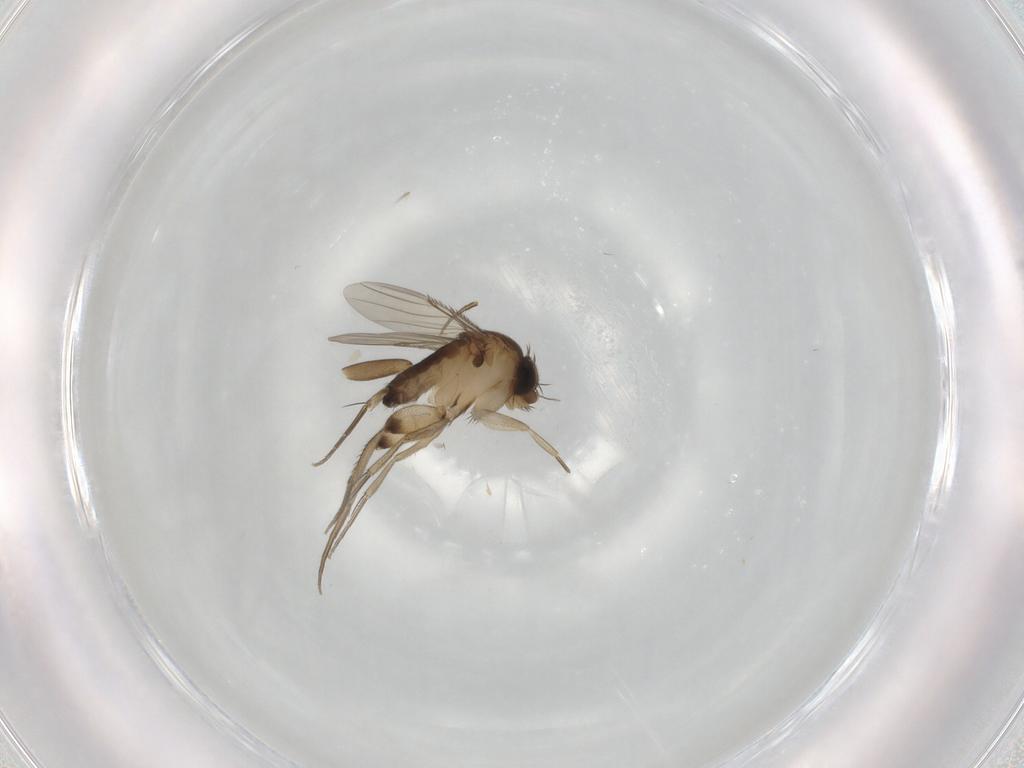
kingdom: Animalia
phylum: Arthropoda
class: Insecta
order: Diptera
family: Phoridae
